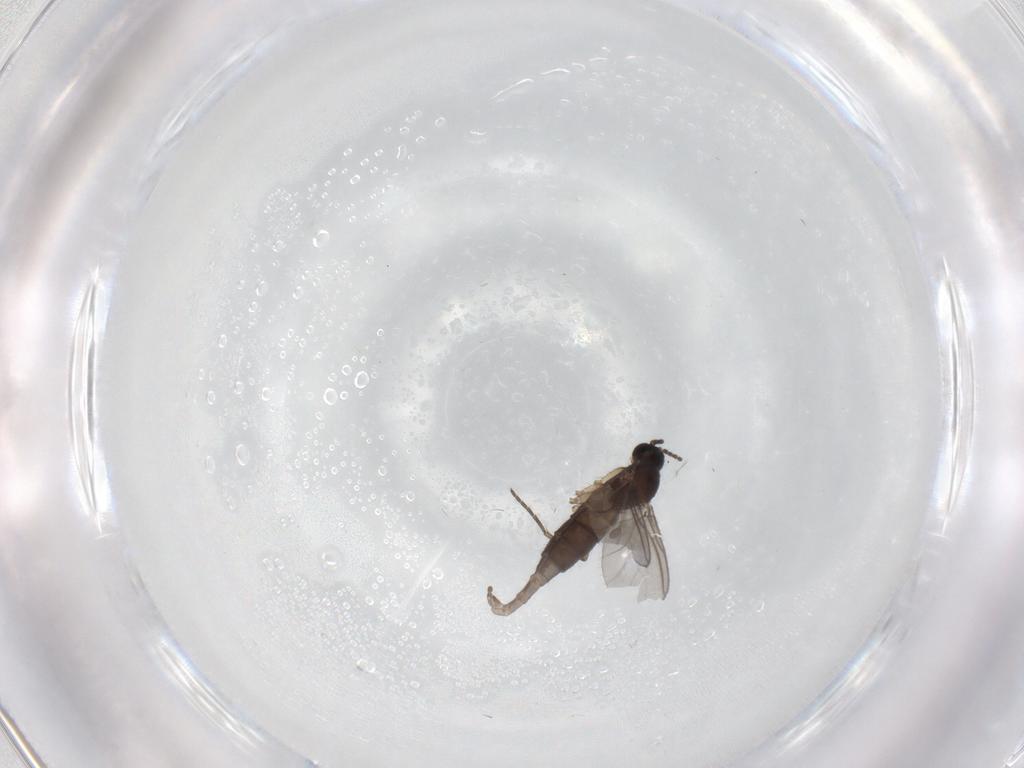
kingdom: Animalia
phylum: Arthropoda
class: Insecta
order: Diptera
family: Sciaridae
